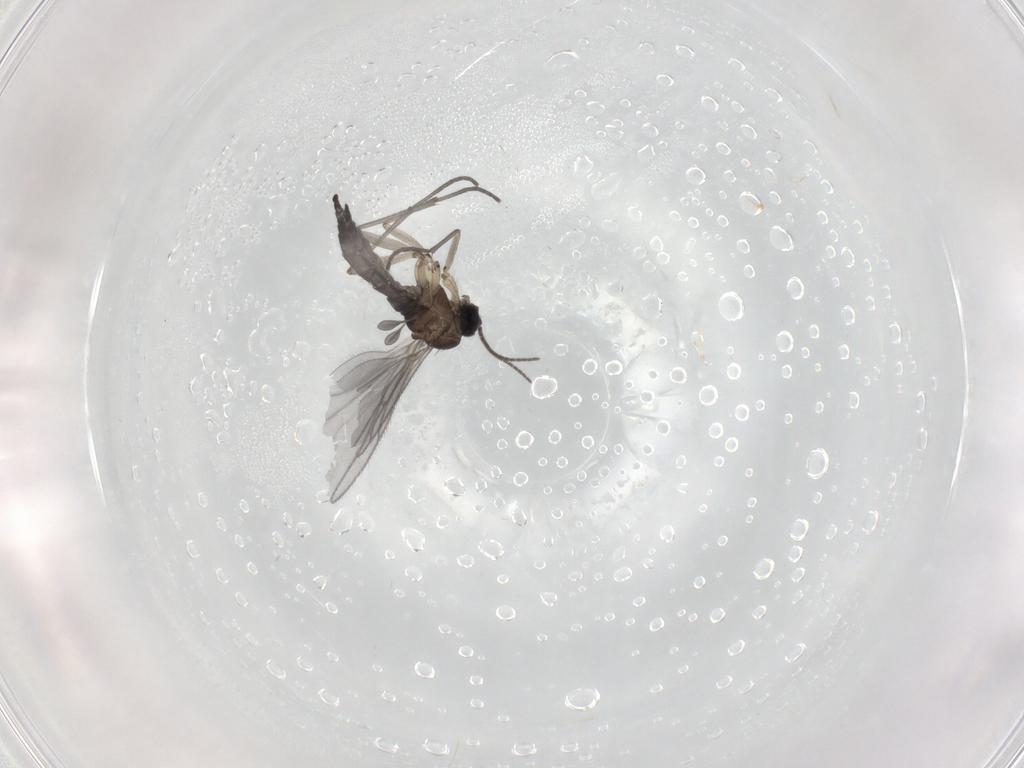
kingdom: Animalia
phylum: Arthropoda
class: Insecta
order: Diptera
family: Sciaridae
